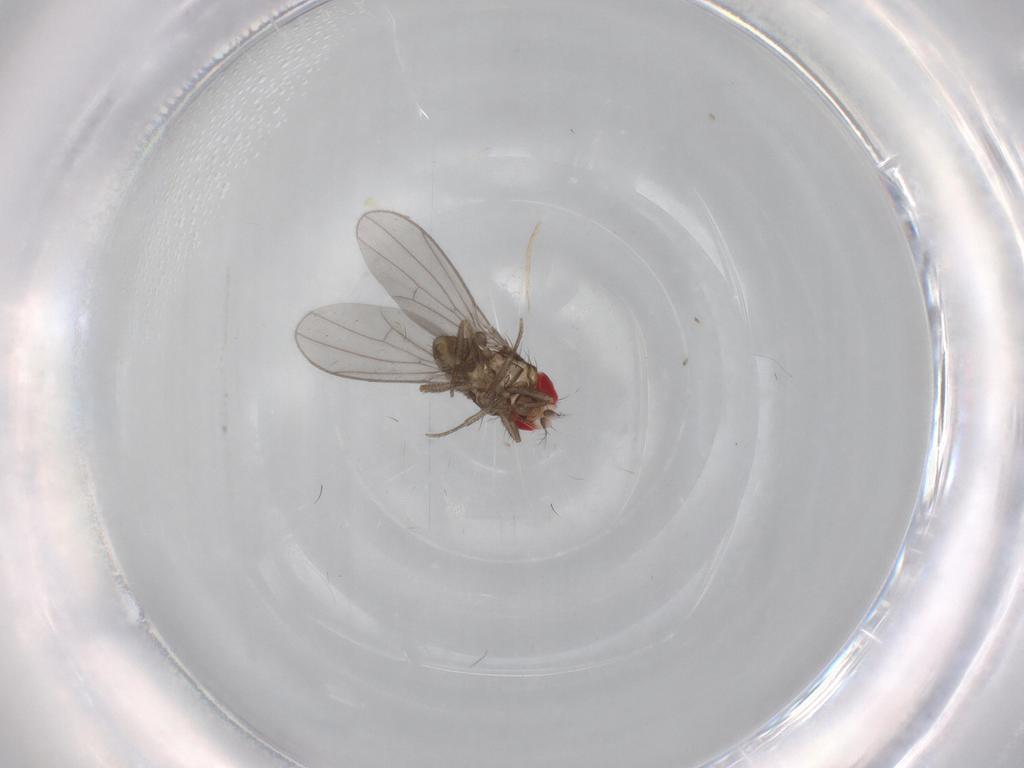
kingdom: Animalia
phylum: Arthropoda
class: Insecta
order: Diptera
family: Drosophilidae
